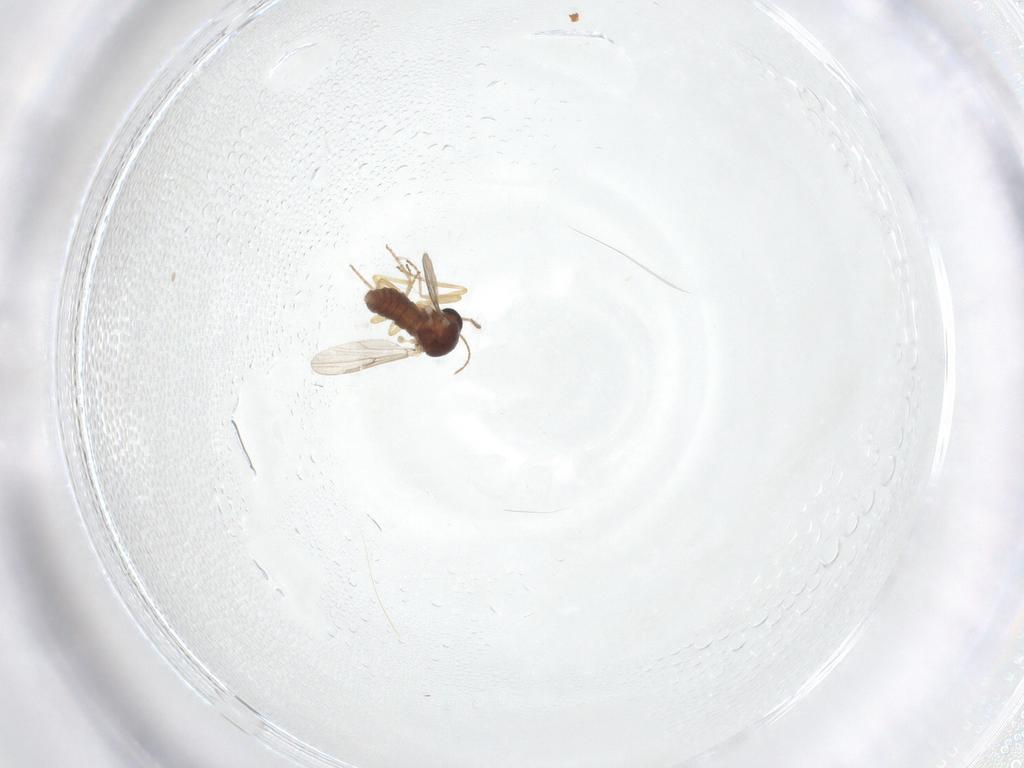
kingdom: Animalia
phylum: Arthropoda
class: Insecta
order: Diptera
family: Ceratopogonidae
